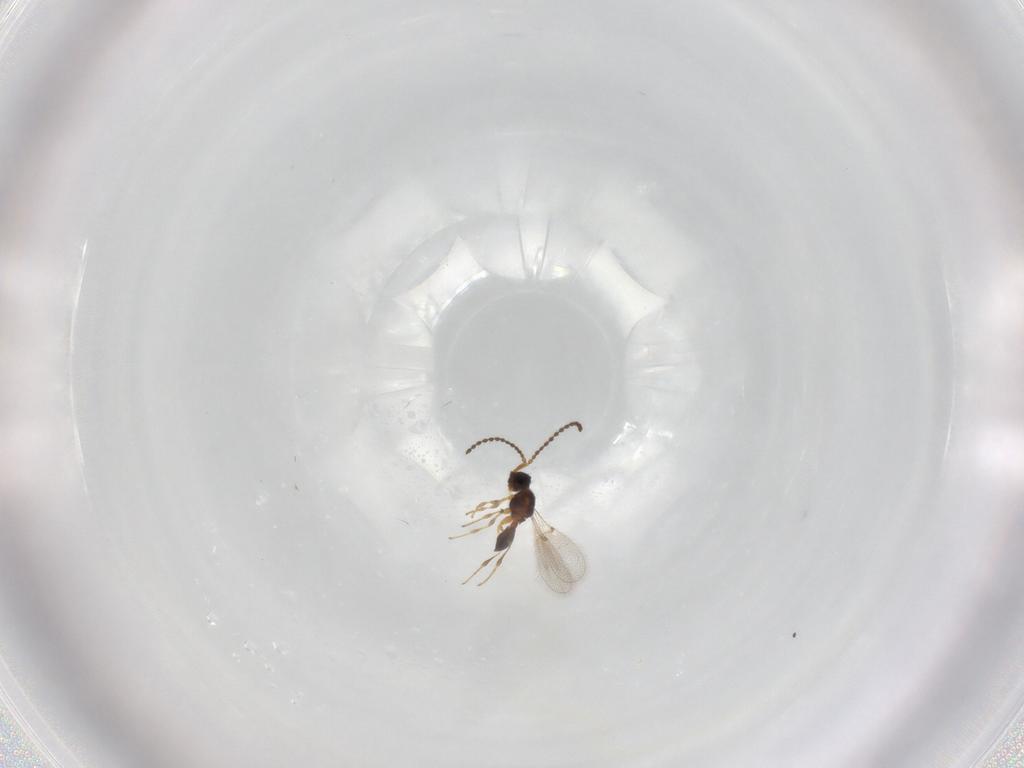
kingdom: Animalia
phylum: Arthropoda
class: Insecta
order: Hymenoptera
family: Diapriidae
